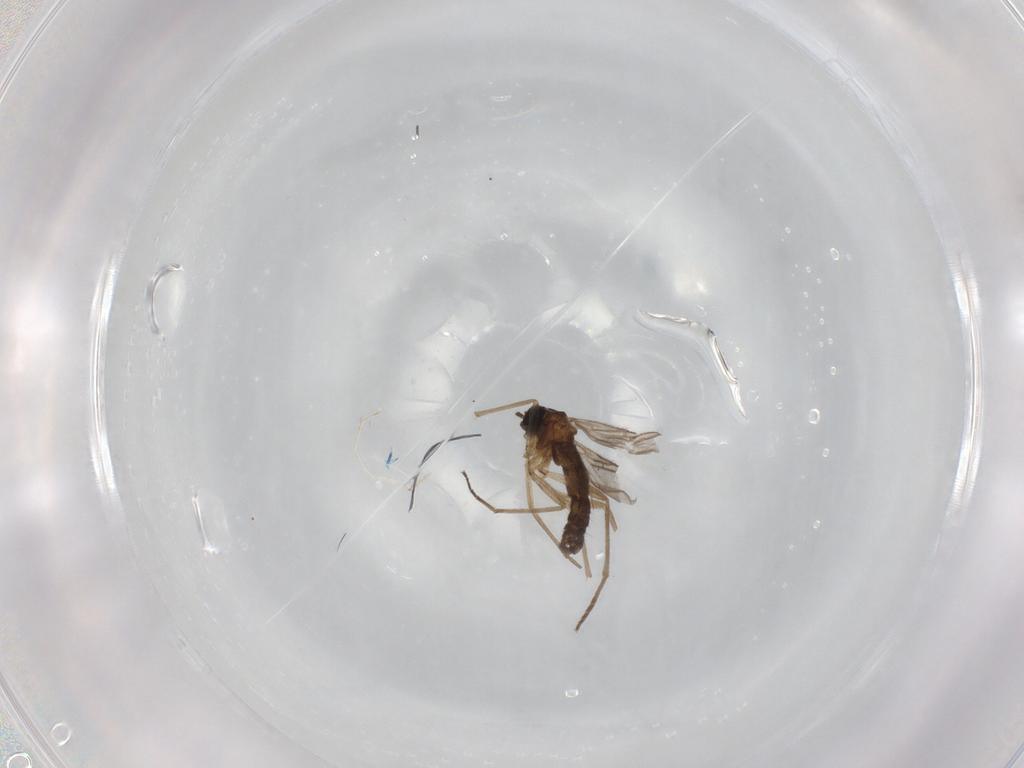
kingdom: Animalia
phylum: Arthropoda
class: Insecta
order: Diptera
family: Sciaridae
